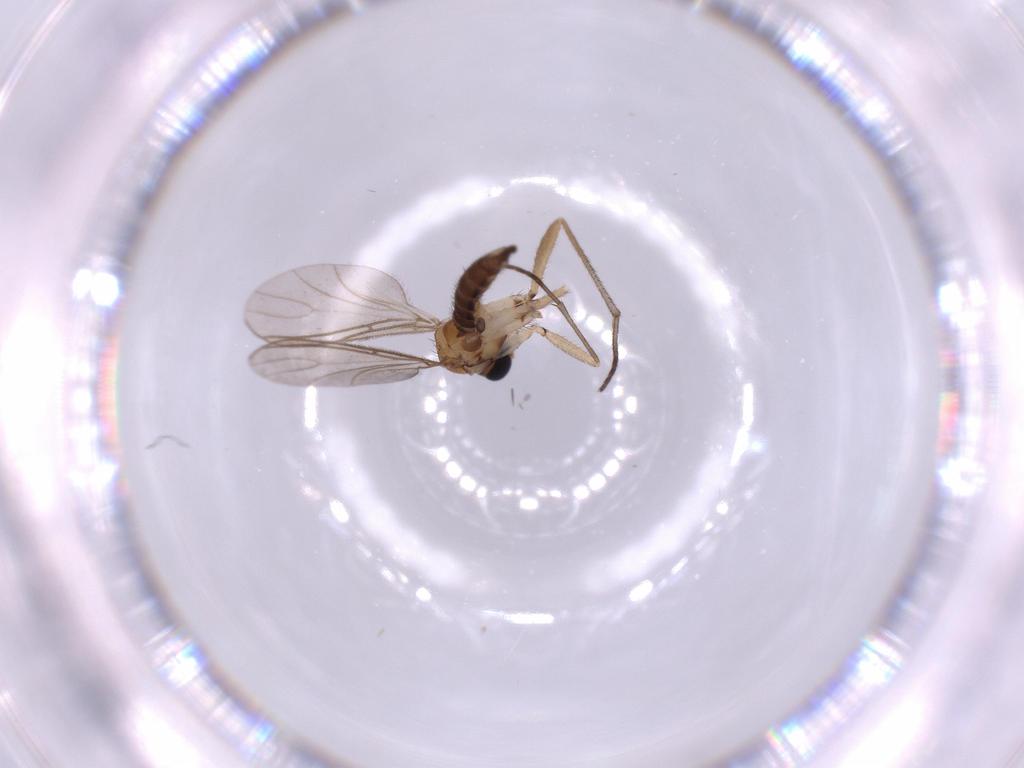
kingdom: Animalia
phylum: Arthropoda
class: Insecta
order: Diptera
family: Sciaridae
